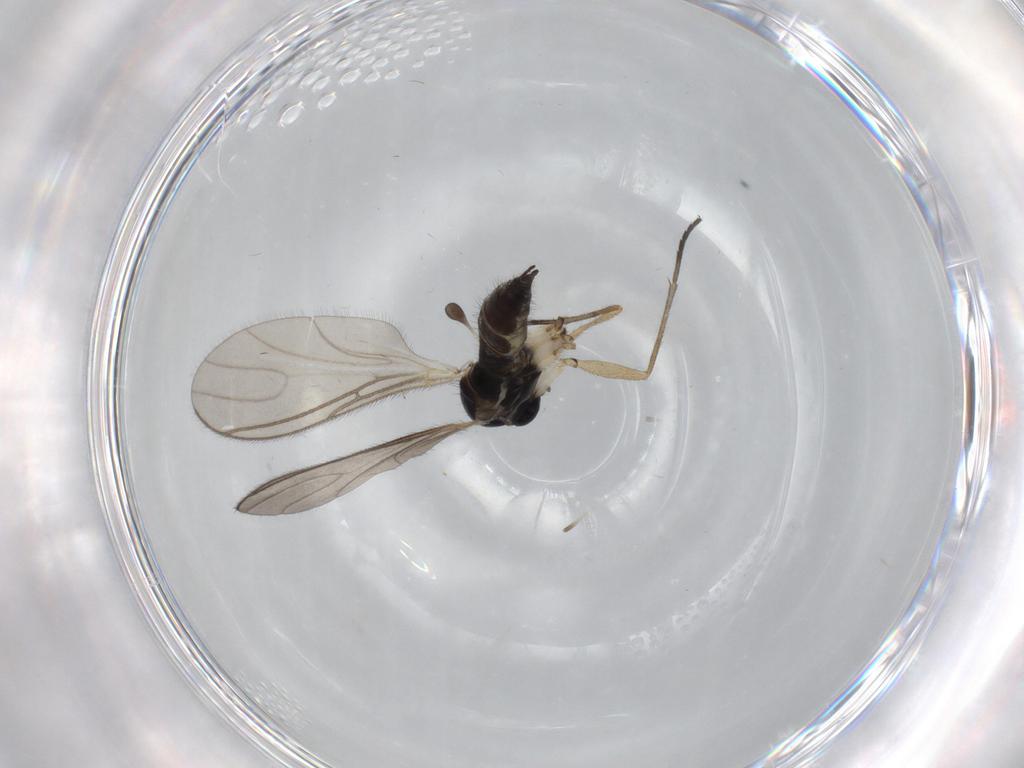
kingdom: Animalia
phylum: Arthropoda
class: Insecta
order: Diptera
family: Sciaridae
